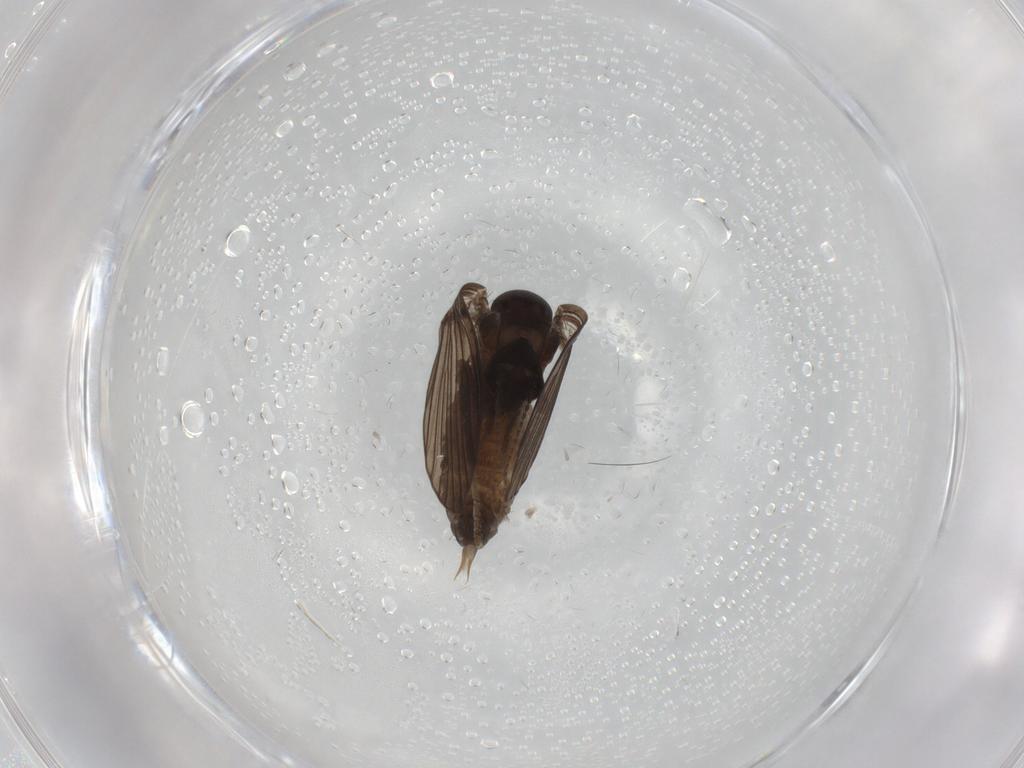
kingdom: Animalia
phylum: Arthropoda
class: Insecta
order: Diptera
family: Psychodidae
